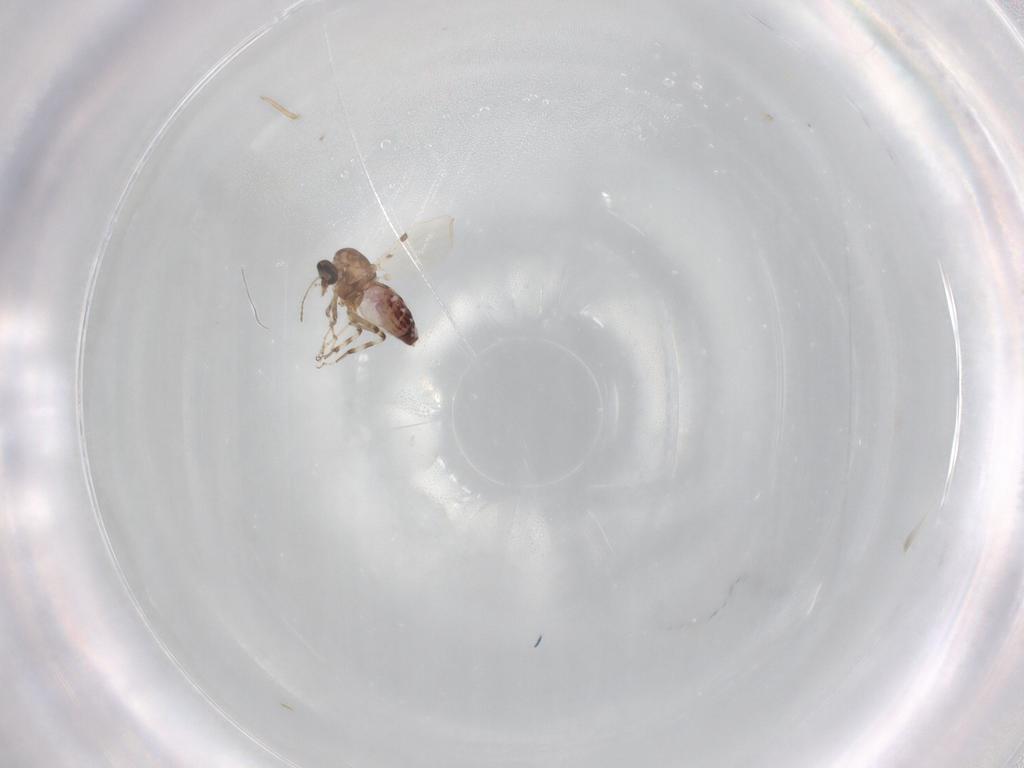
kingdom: Animalia
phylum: Arthropoda
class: Insecta
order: Diptera
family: Ceratopogonidae
